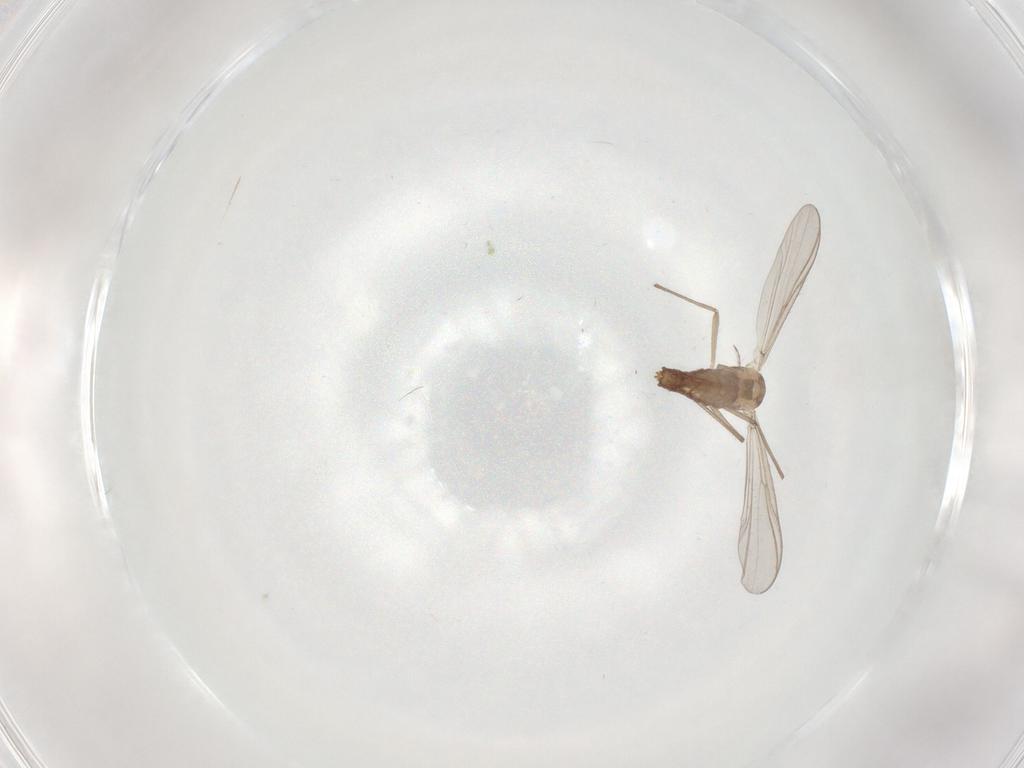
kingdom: Animalia
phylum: Arthropoda
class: Insecta
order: Diptera
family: Chironomidae
